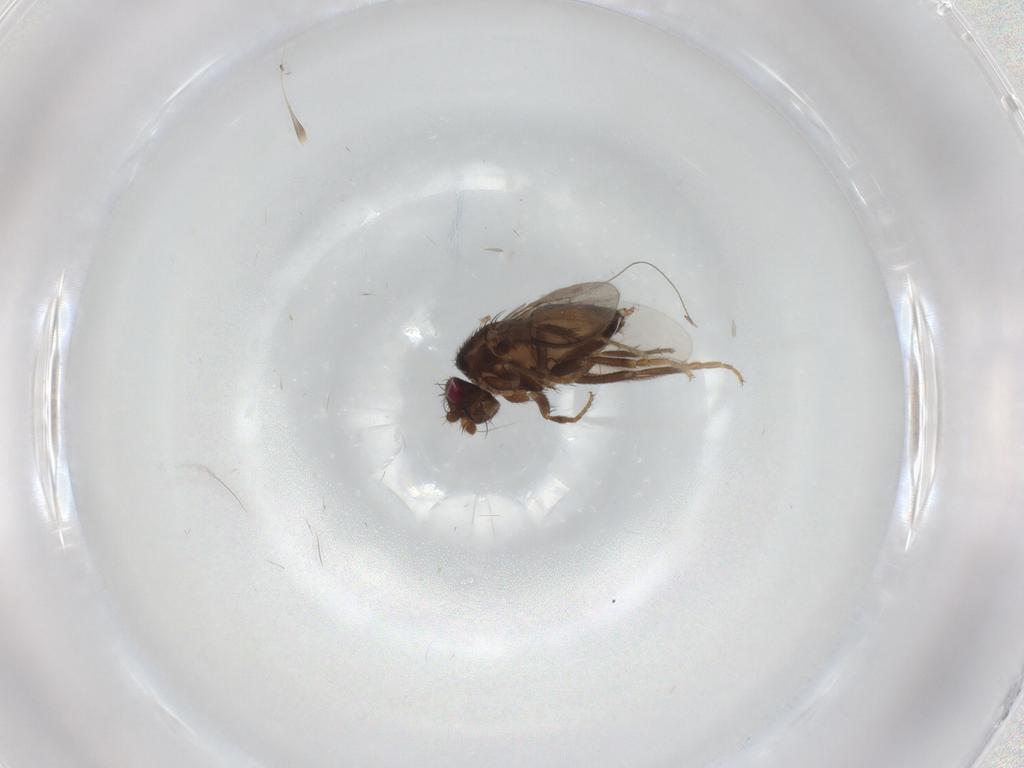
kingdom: Animalia
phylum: Arthropoda
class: Insecta
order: Diptera
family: Sphaeroceridae
